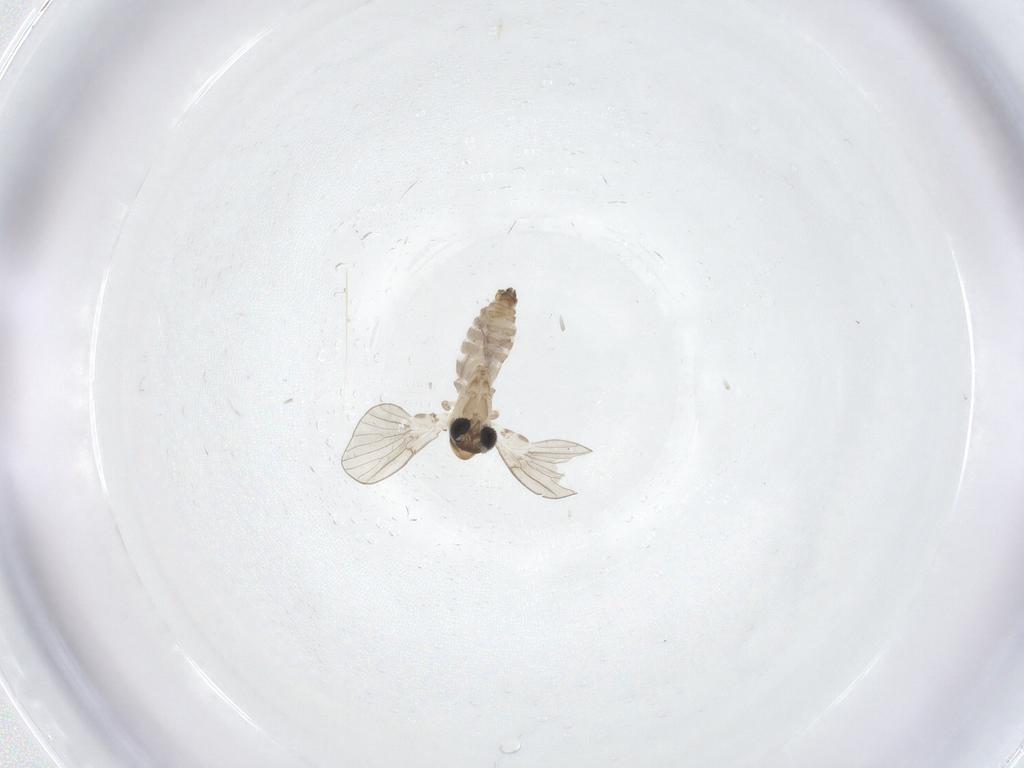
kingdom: Animalia
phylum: Arthropoda
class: Insecta
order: Diptera
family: Psychodidae
